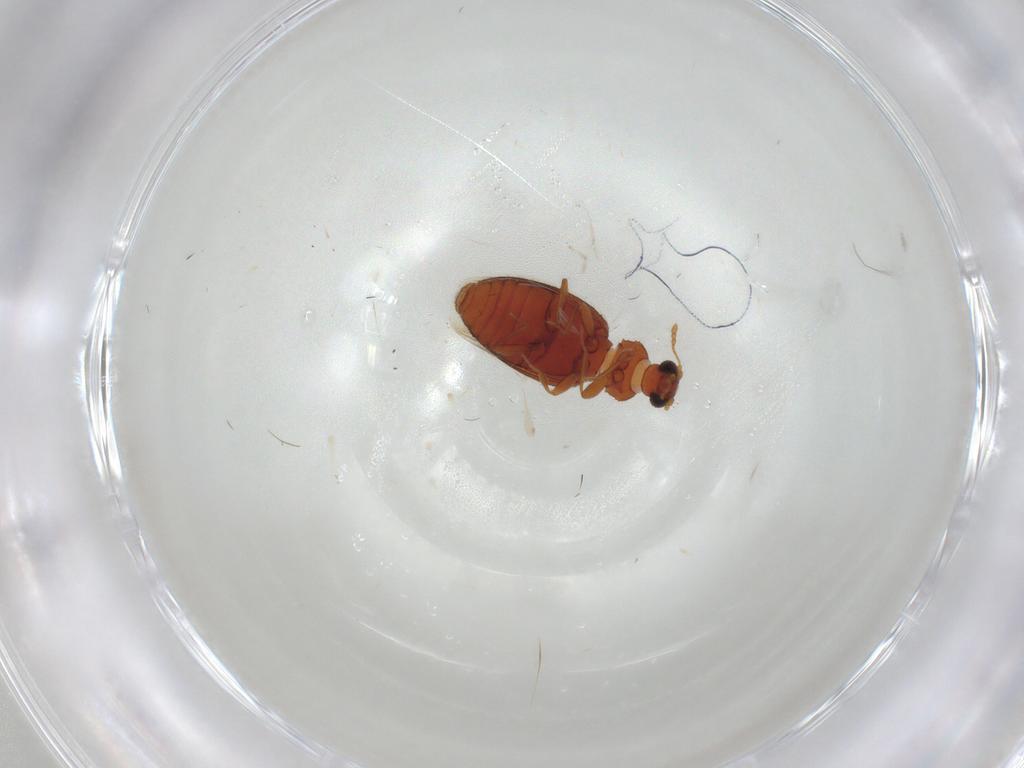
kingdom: Animalia
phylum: Arthropoda
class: Insecta
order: Coleoptera
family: Latridiidae
